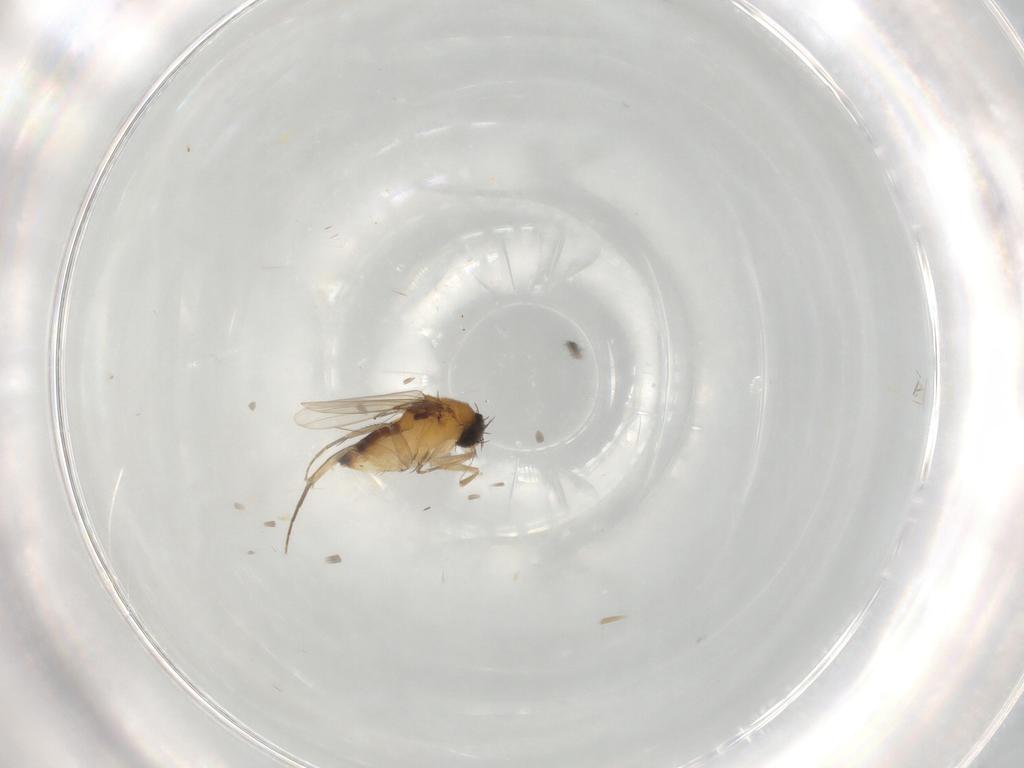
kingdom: Animalia
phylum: Arthropoda
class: Insecta
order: Diptera
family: Phoridae
